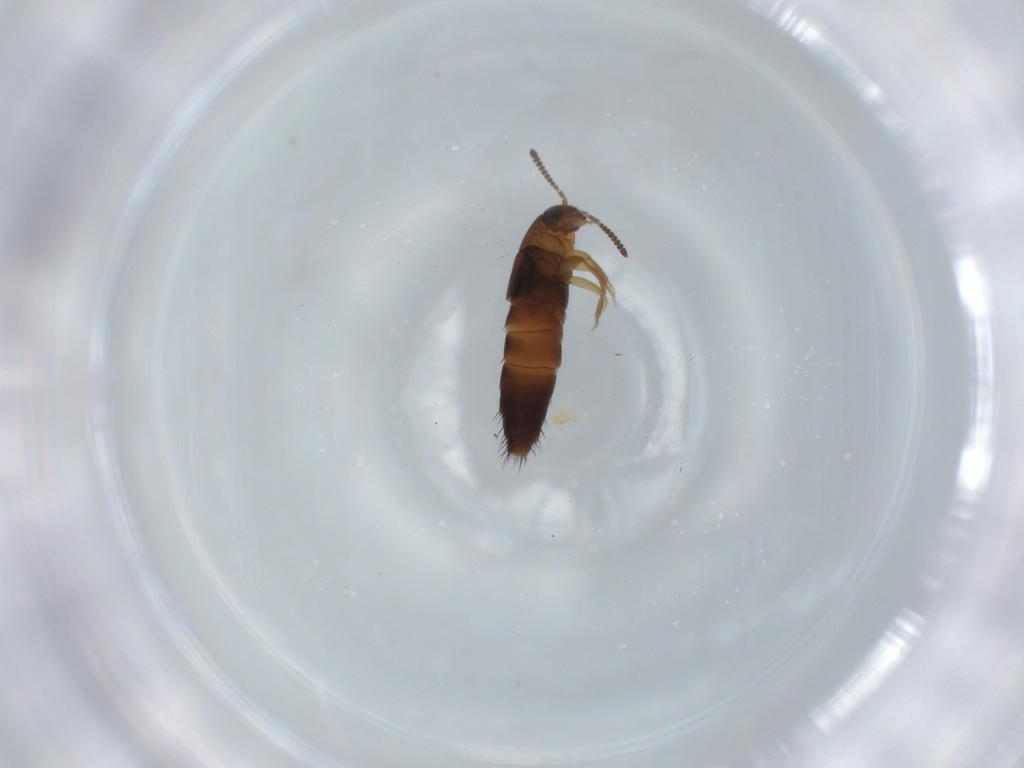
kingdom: Animalia
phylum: Arthropoda
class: Insecta
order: Coleoptera
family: Staphylinidae
